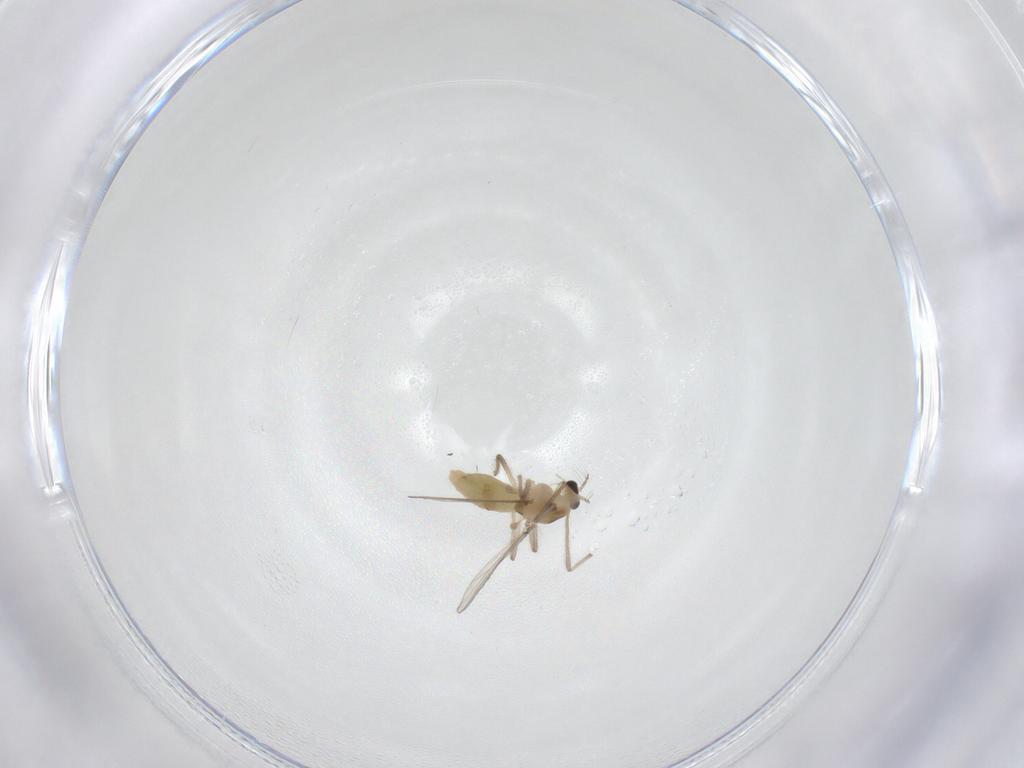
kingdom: Animalia
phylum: Arthropoda
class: Insecta
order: Diptera
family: Chironomidae
